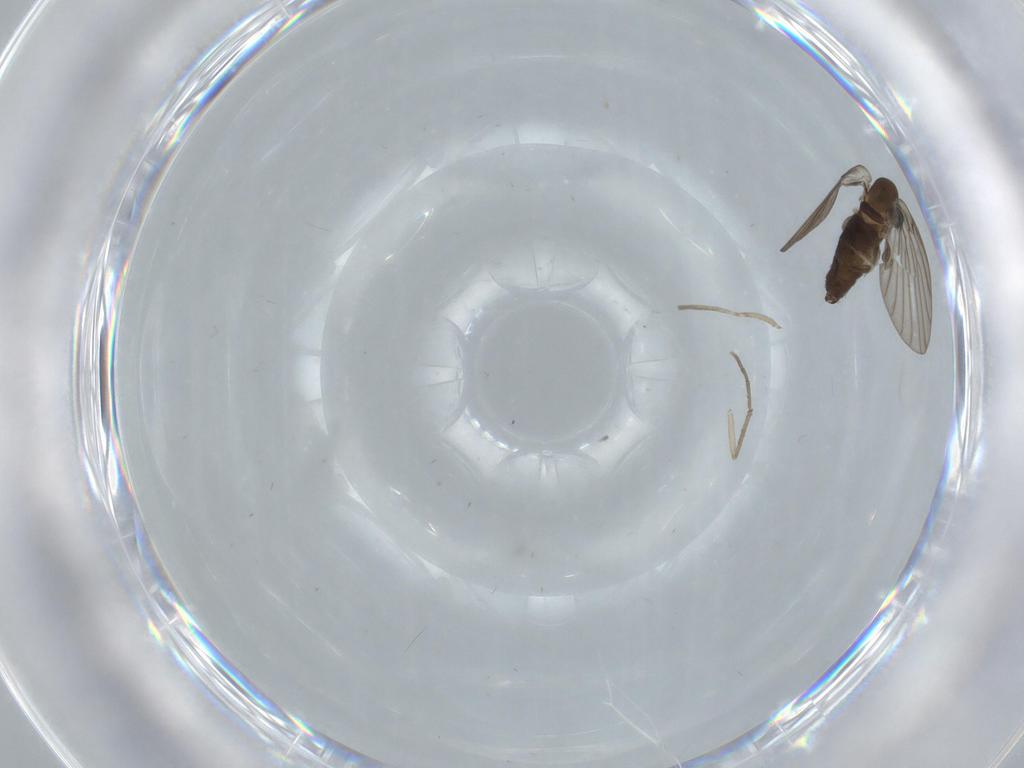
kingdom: Animalia
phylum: Arthropoda
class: Insecta
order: Diptera
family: Psychodidae
